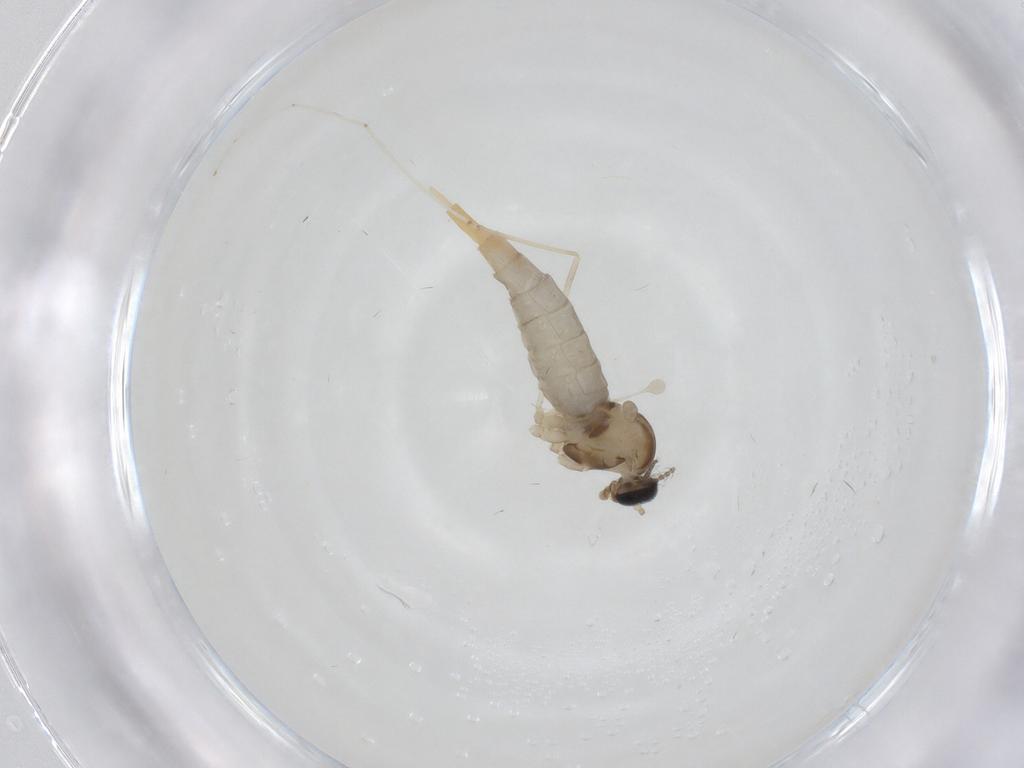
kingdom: Animalia
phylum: Arthropoda
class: Insecta
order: Diptera
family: Cecidomyiidae
